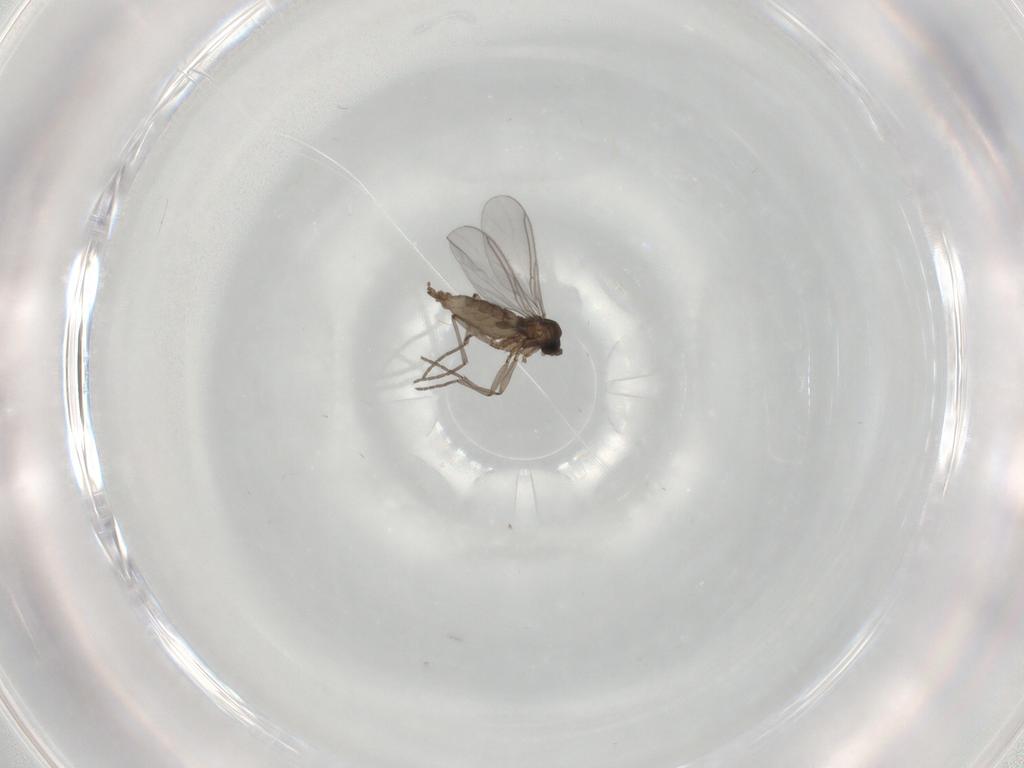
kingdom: Animalia
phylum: Arthropoda
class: Insecta
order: Diptera
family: Sciaridae
